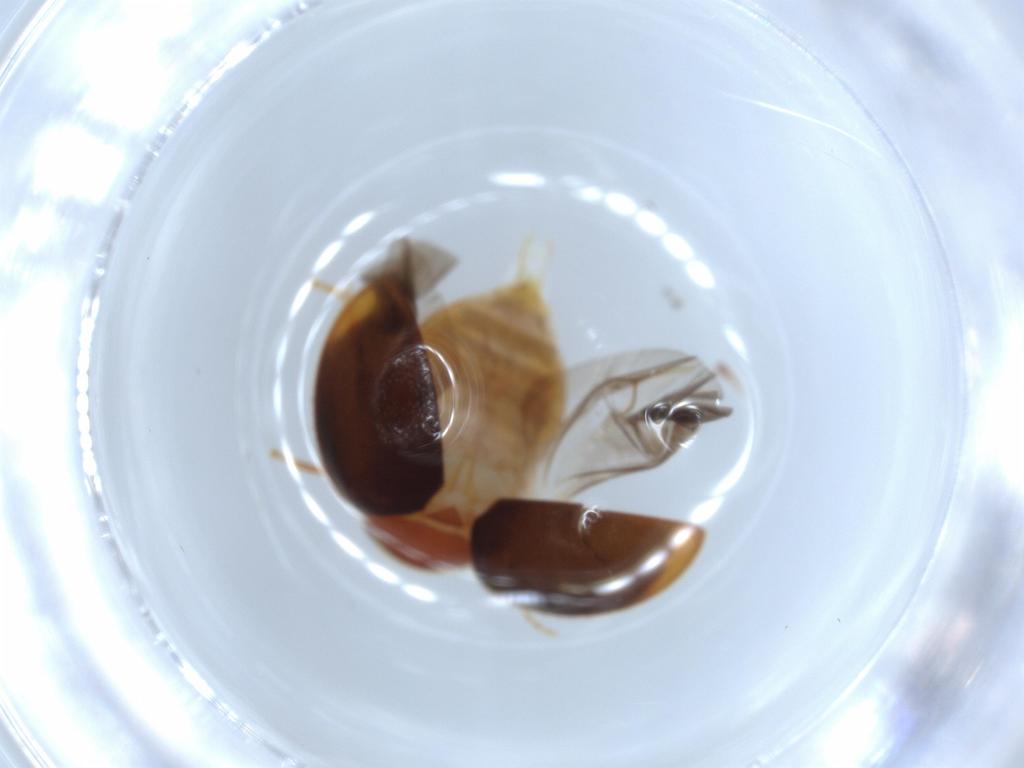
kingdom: Animalia
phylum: Arthropoda
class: Insecta
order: Coleoptera
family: Scirtidae
